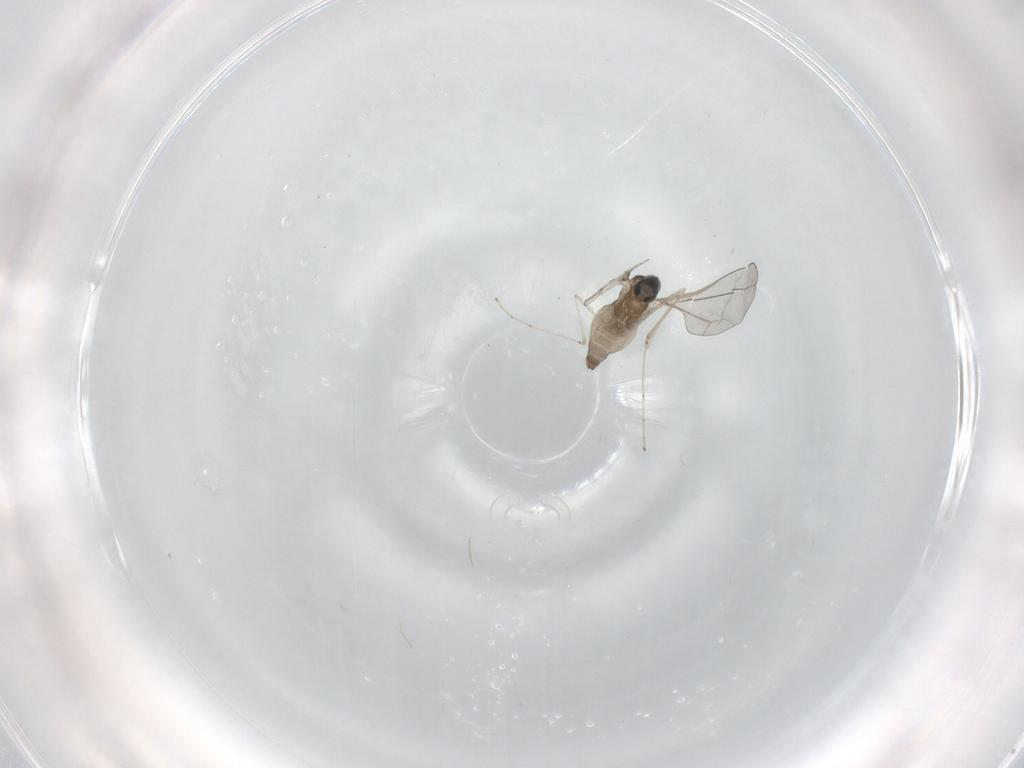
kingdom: Animalia
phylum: Arthropoda
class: Insecta
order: Diptera
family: Cecidomyiidae
